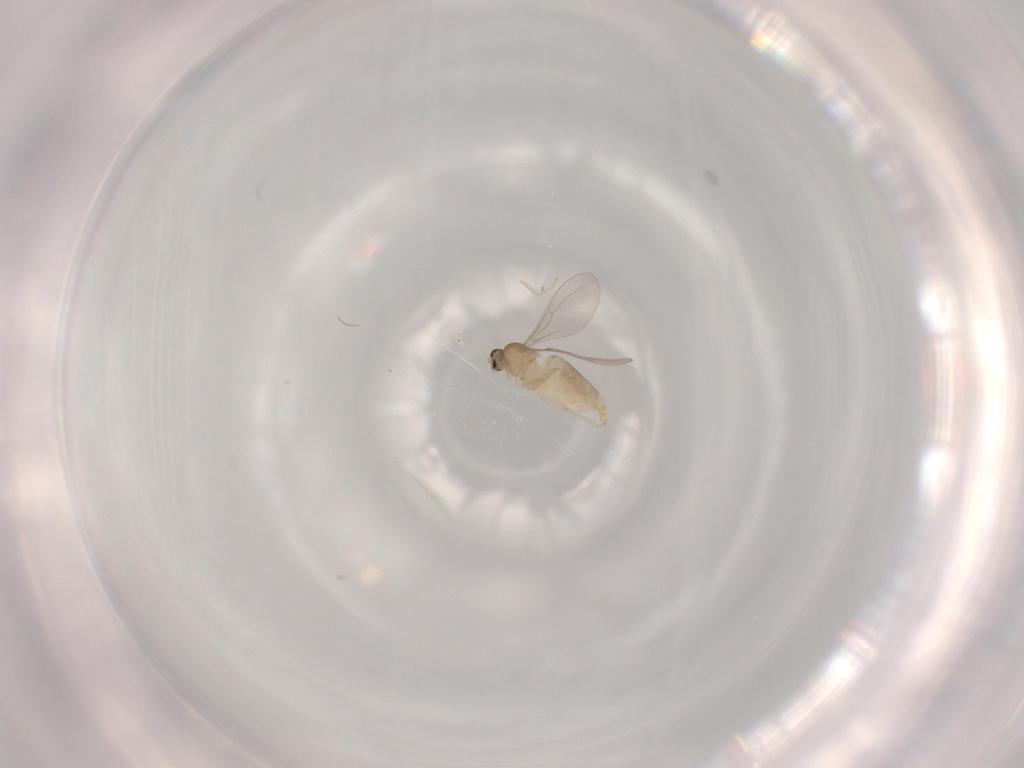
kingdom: Animalia
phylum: Arthropoda
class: Insecta
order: Diptera
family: Cecidomyiidae
